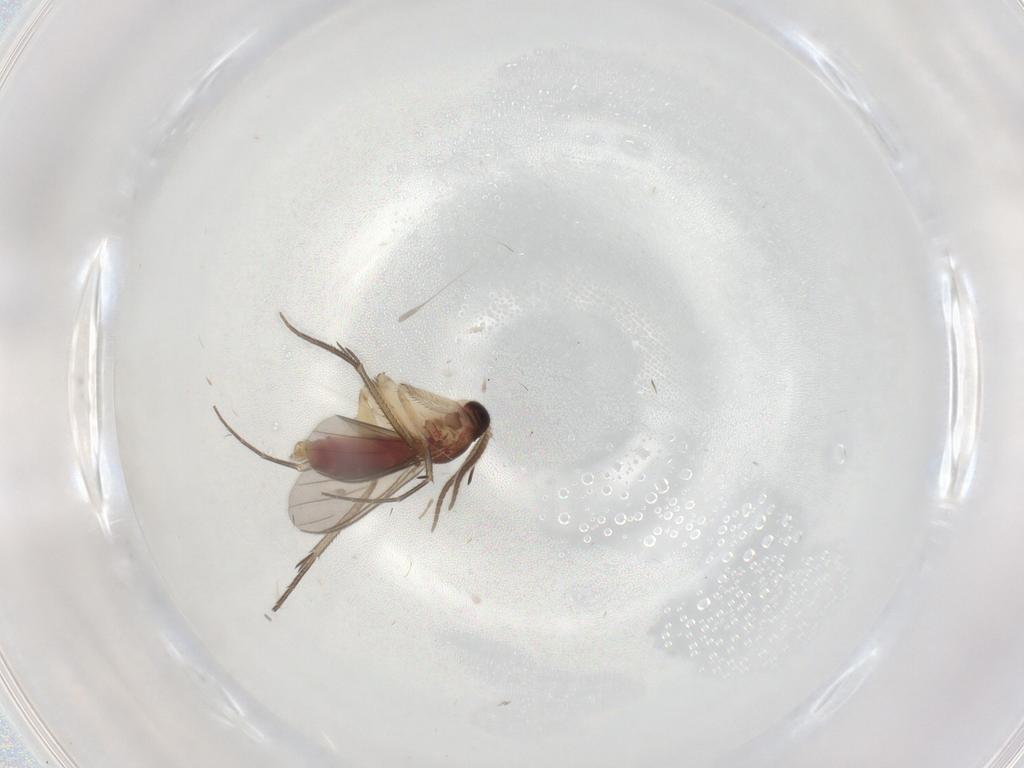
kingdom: Animalia
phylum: Arthropoda
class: Insecta
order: Diptera
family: Mycetophilidae
